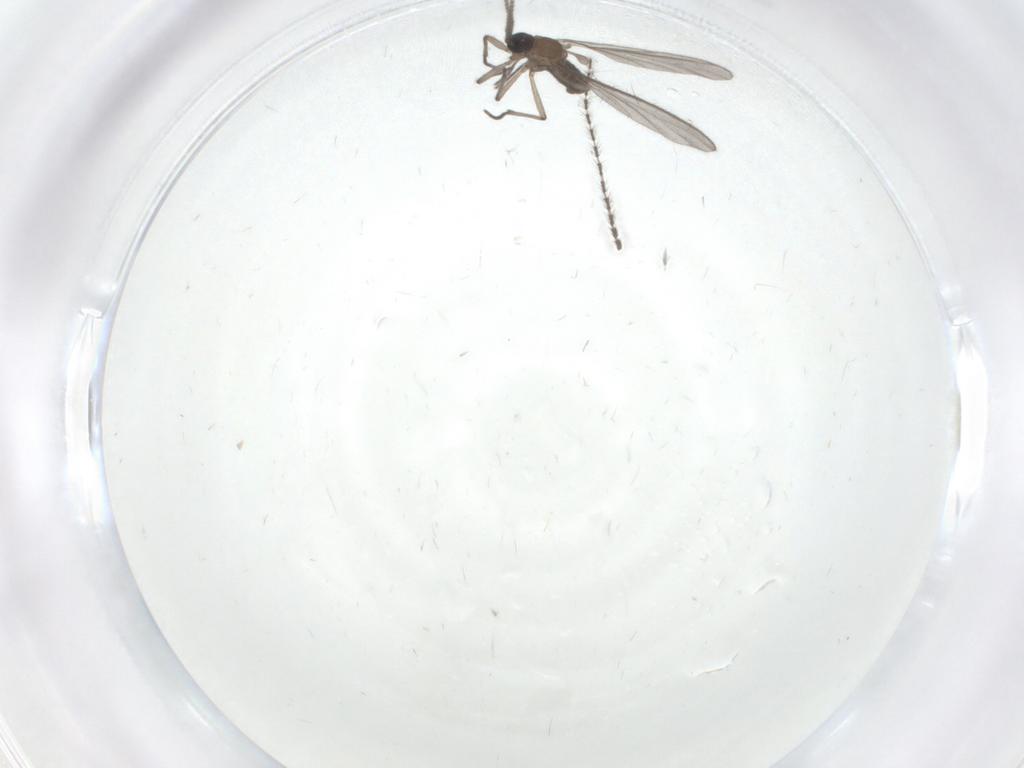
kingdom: Animalia
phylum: Arthropoda
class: Insecta
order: Diptera
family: Sciaridae
